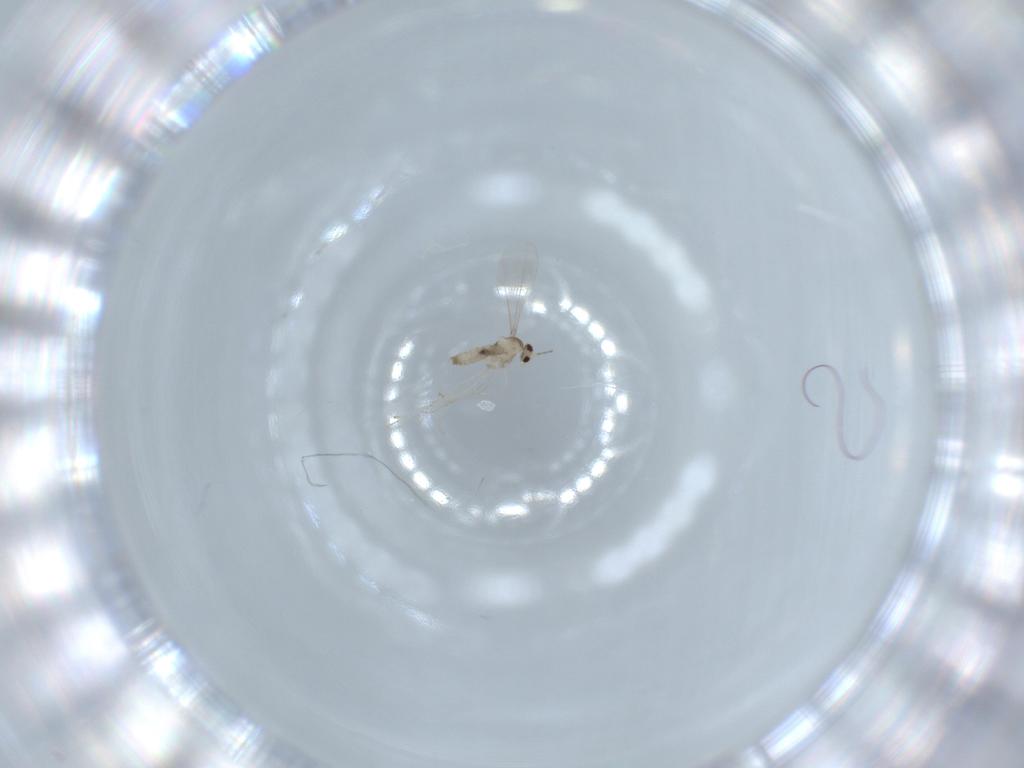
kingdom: Animalia
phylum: Arthropoda
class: Insecta
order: Diptera
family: Cecidomyiidae
